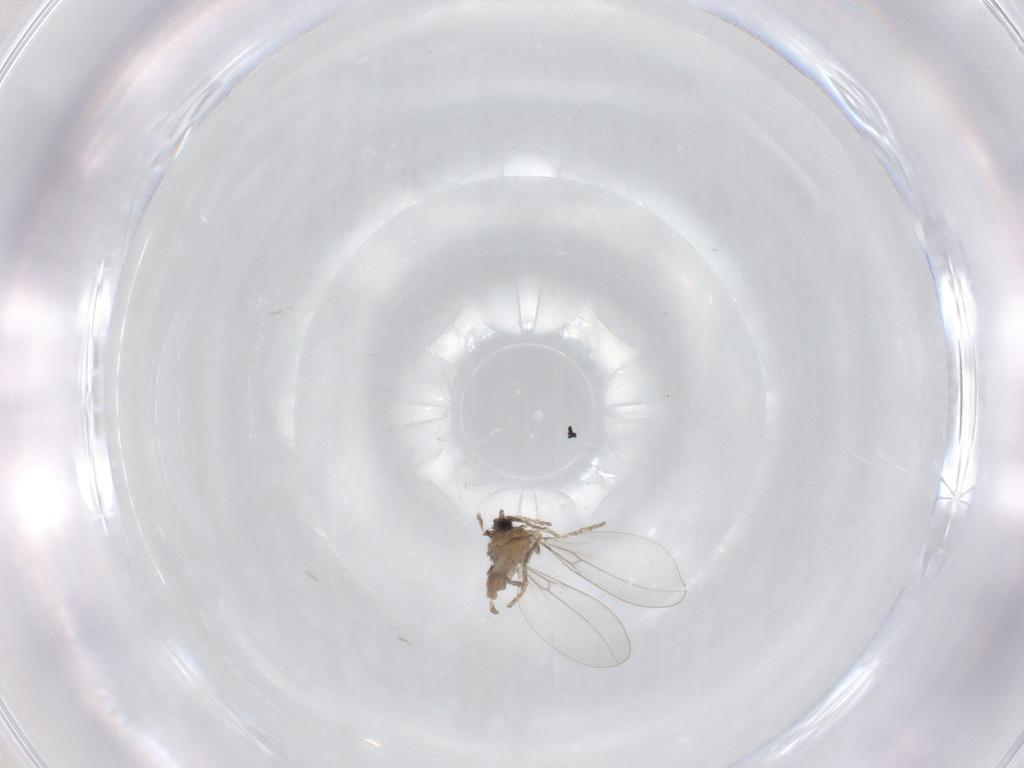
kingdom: Animalia
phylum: Arthropoda
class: Insecta
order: Diptera
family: Cecidomyiidae
